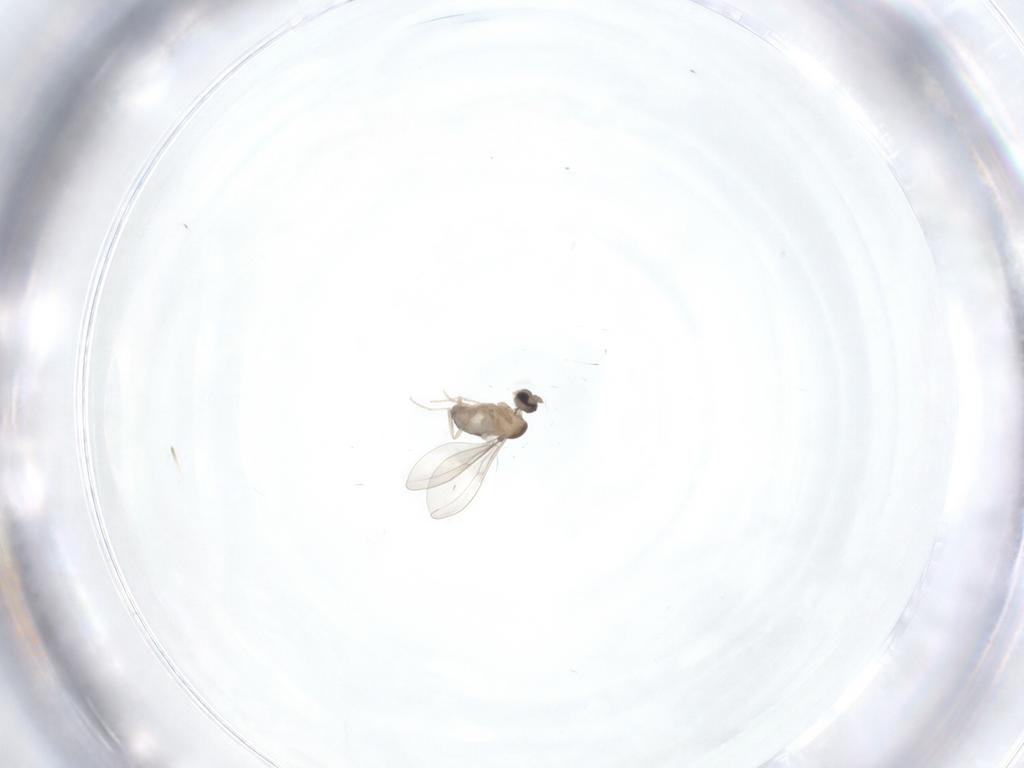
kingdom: Animalia
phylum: Arthropoda
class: Insecta
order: Diptera
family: Cecidomyiidae
